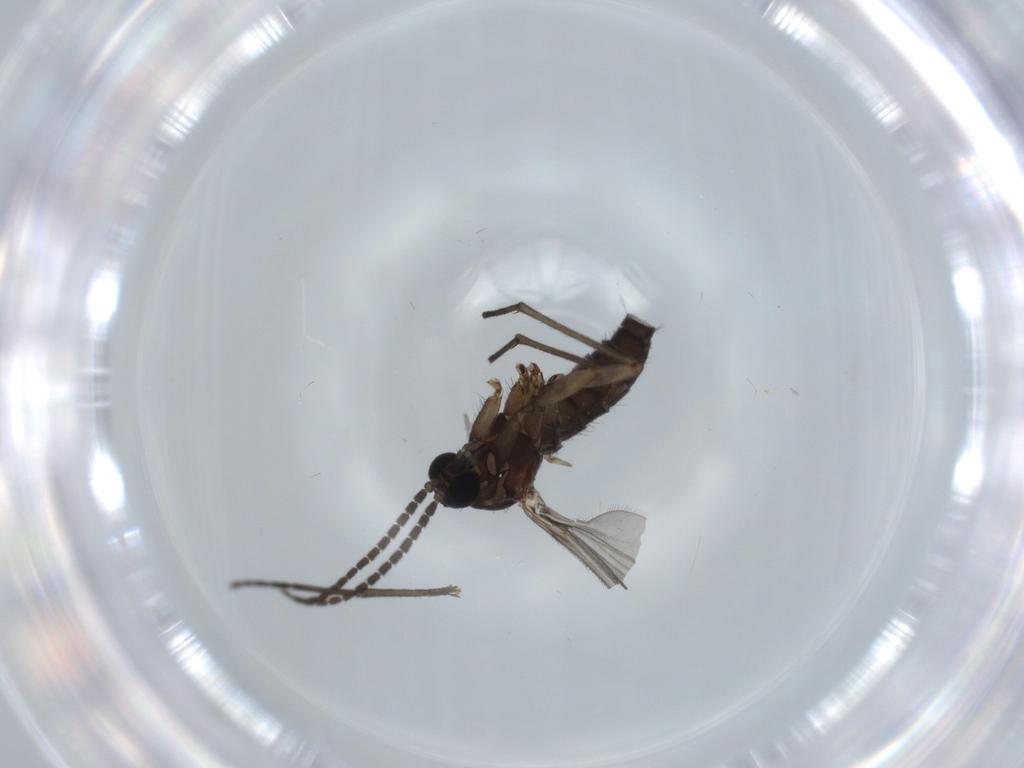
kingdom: Animalia
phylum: Arthropoda
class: Insecta
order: Diptera
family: Sciaridae
